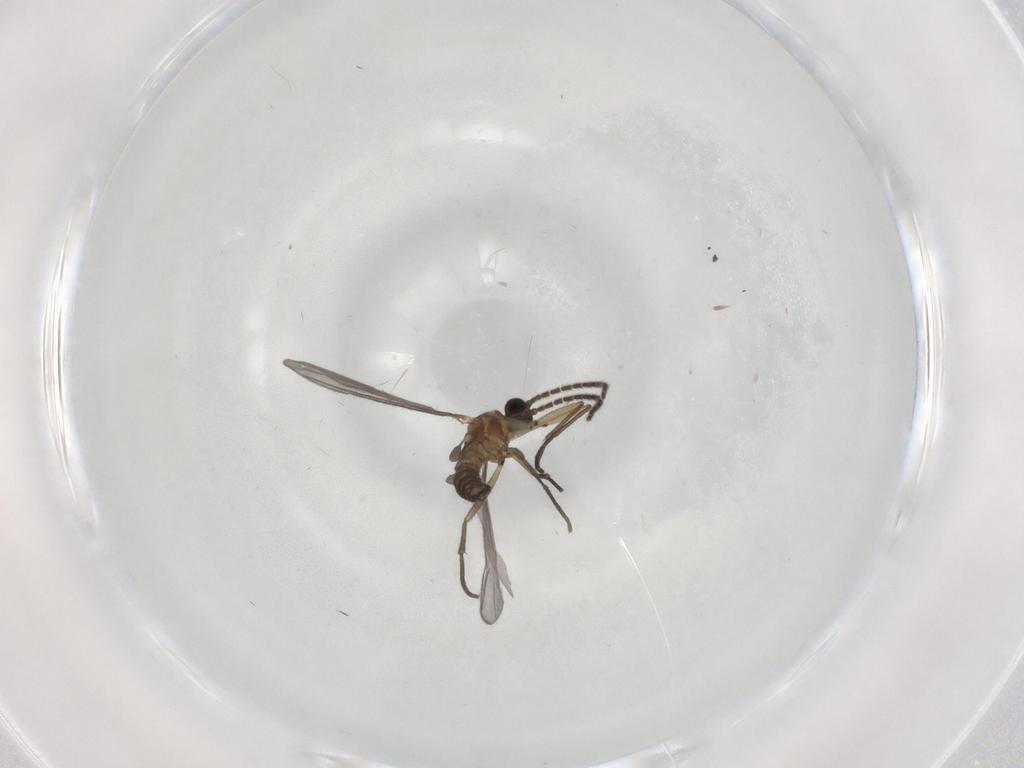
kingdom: Animalia
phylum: Arthropoda
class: Insecta
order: Diptera
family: Sciaridae
